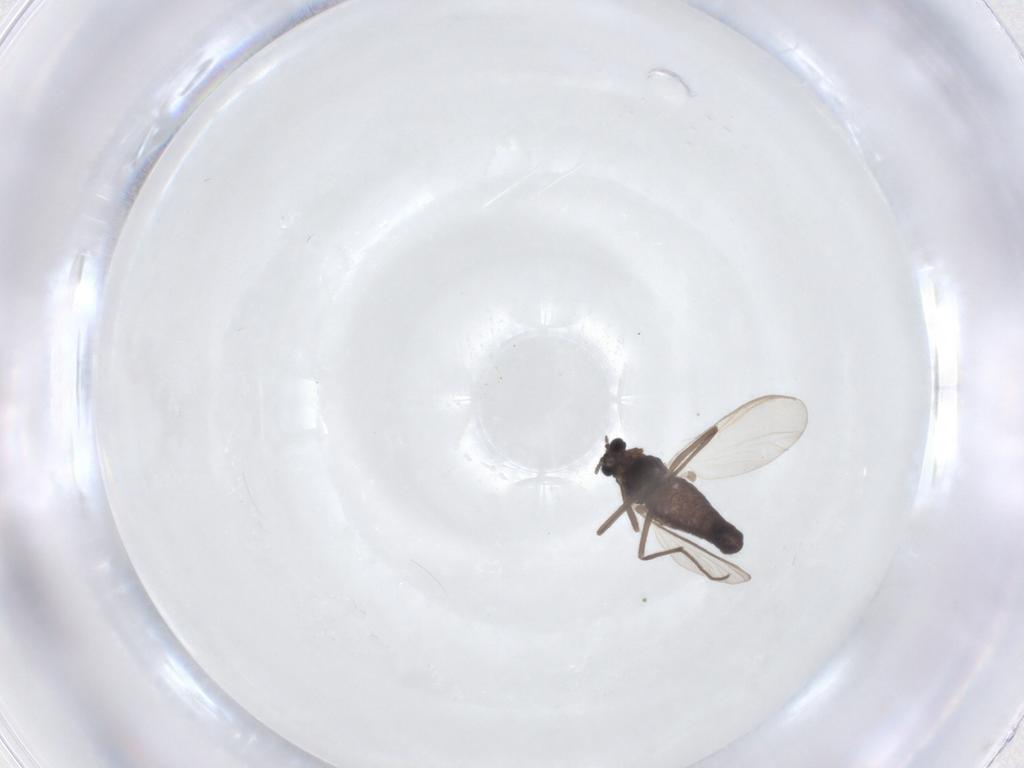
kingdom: Animalia
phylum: Arthropoda
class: Insecta
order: Diptera
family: Chironomidae
